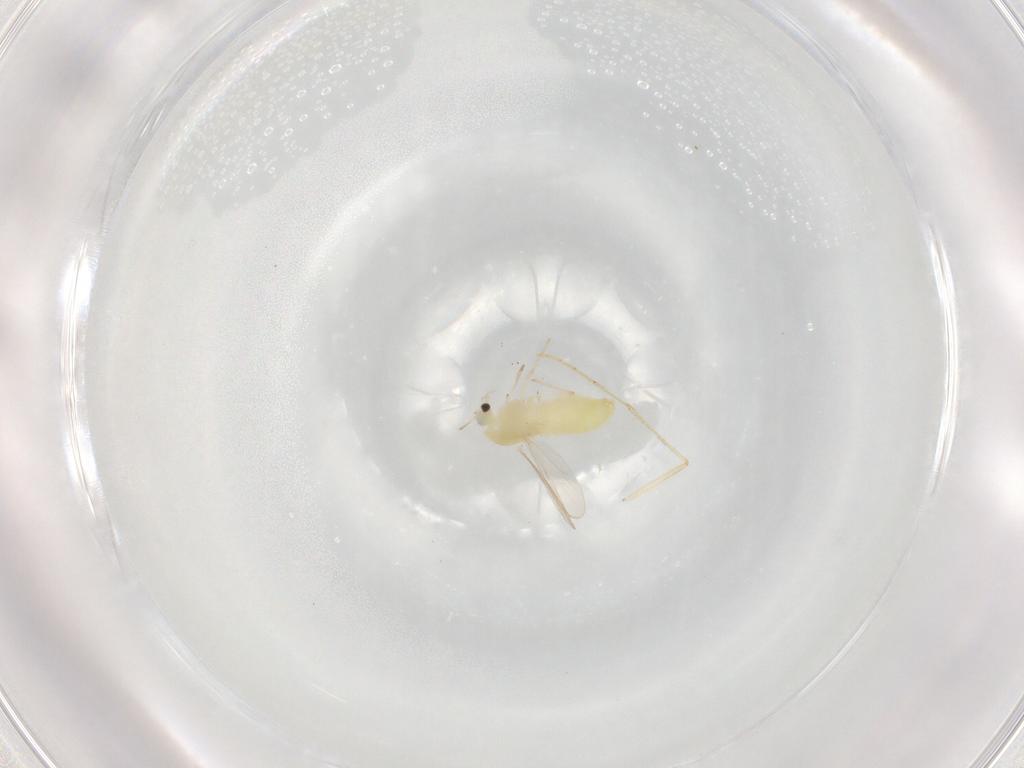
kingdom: Animalia
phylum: Arthropoda
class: Insecta
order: Diptera
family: Chironomidae
